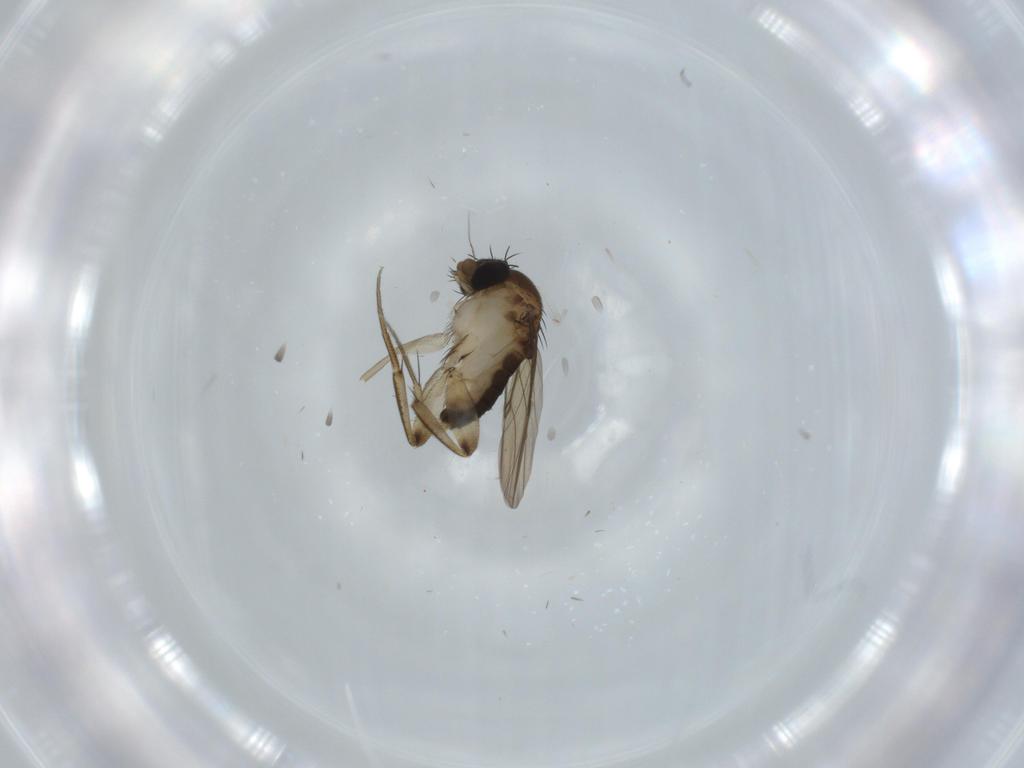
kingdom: Animalia
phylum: Arthropoda
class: Insecta
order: Diptera
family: Phoridae
